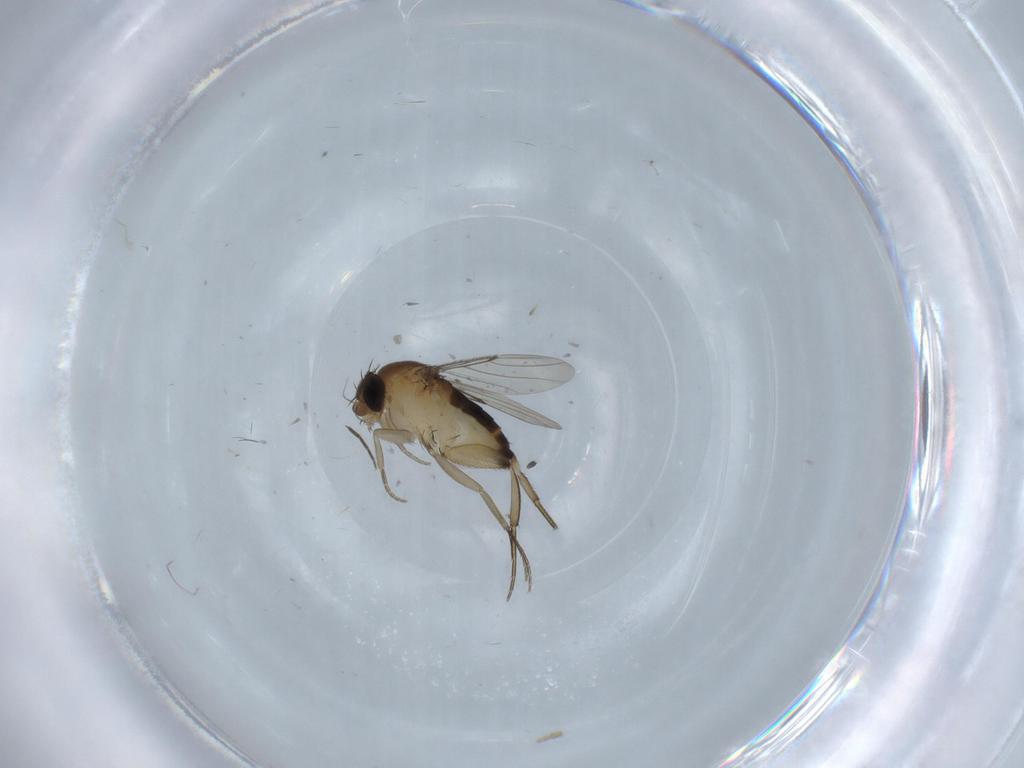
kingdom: Animalia
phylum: Arthropoda
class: Insecta
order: Diptera
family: Phoridae
